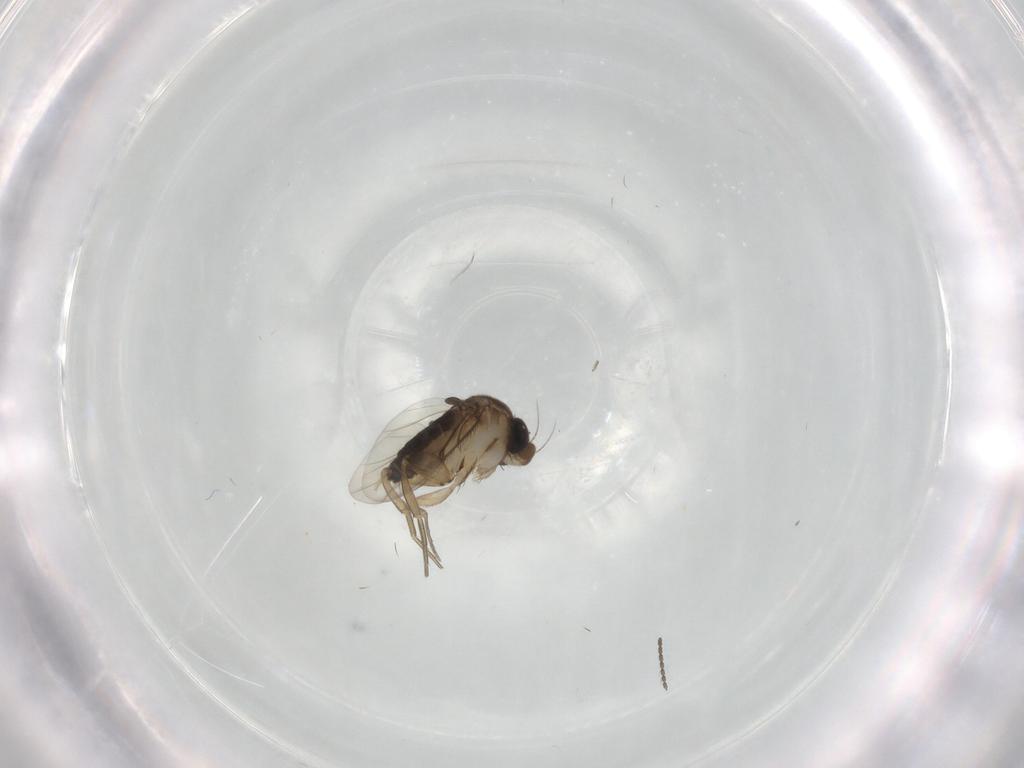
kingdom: Animalia
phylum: Arthropoda
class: Insecta
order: Diptera
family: Phoridae
